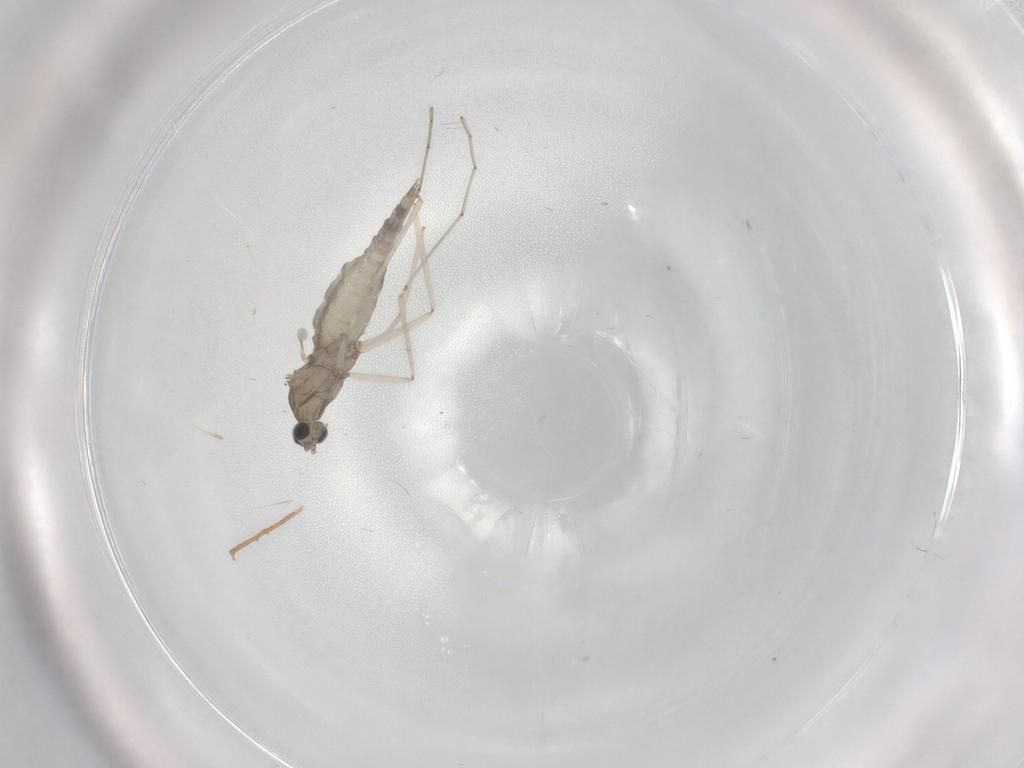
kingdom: Animalia
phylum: Arthropoda
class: Insecta
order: Diptera
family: Cecidomyiidae
